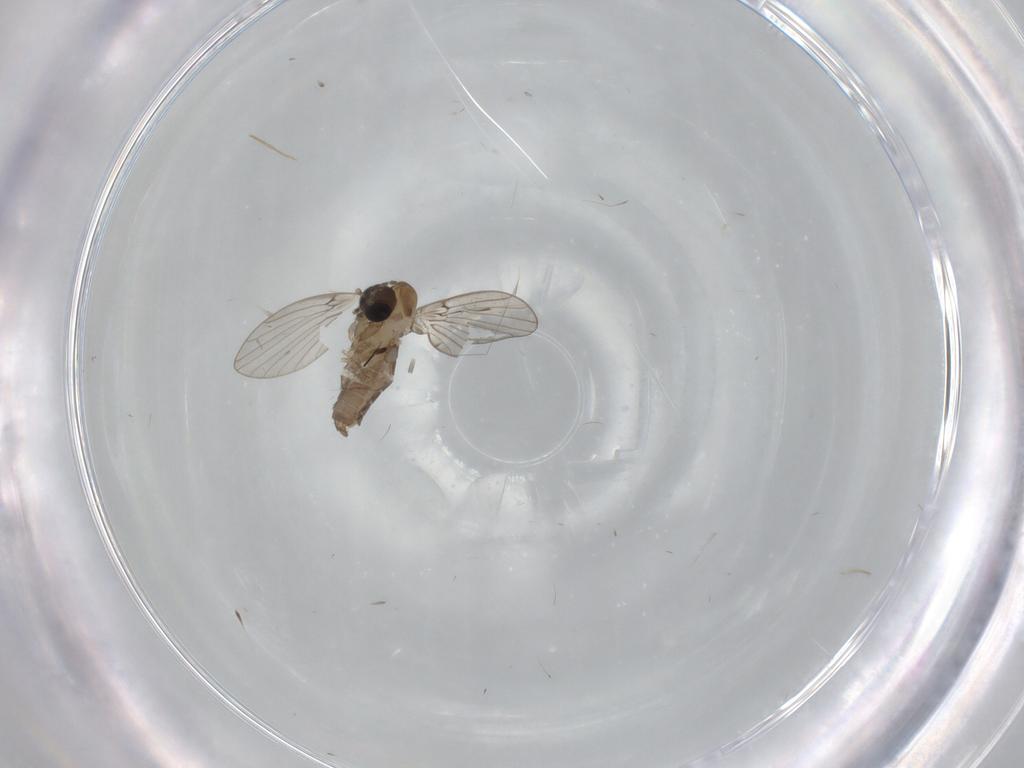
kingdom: Animalia
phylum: Arthropoda
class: Insecta
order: Diptera
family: Psychodidae
